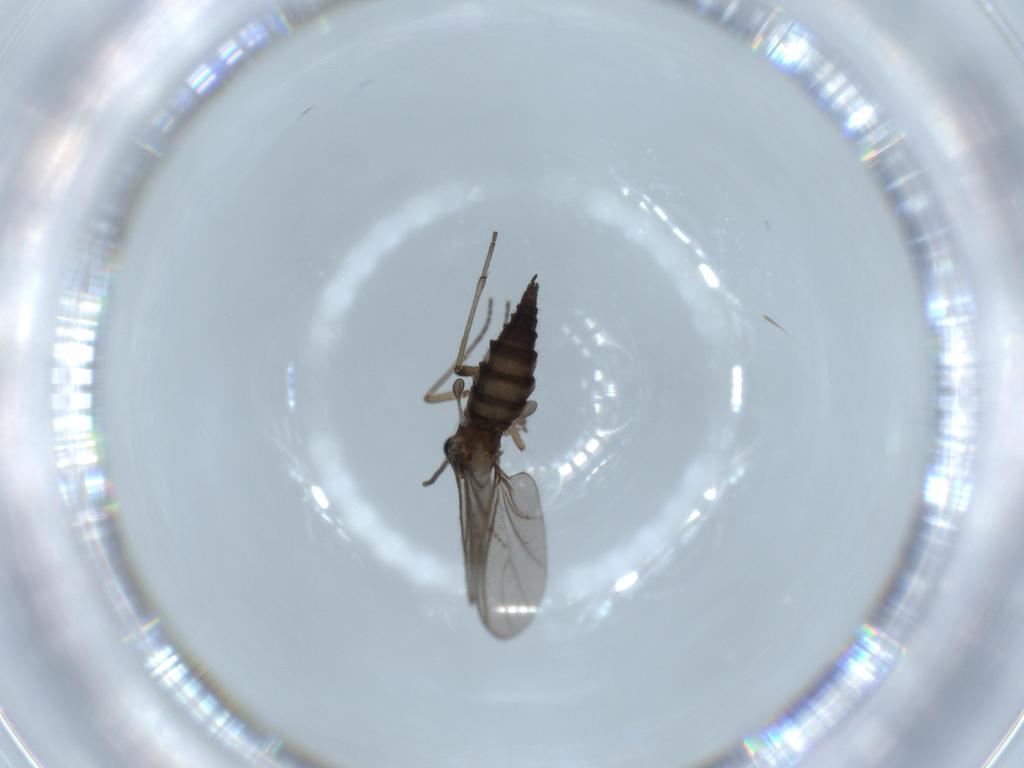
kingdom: Animalia
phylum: Arthropoda
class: Insecta
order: Diptera
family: Sciaridae
